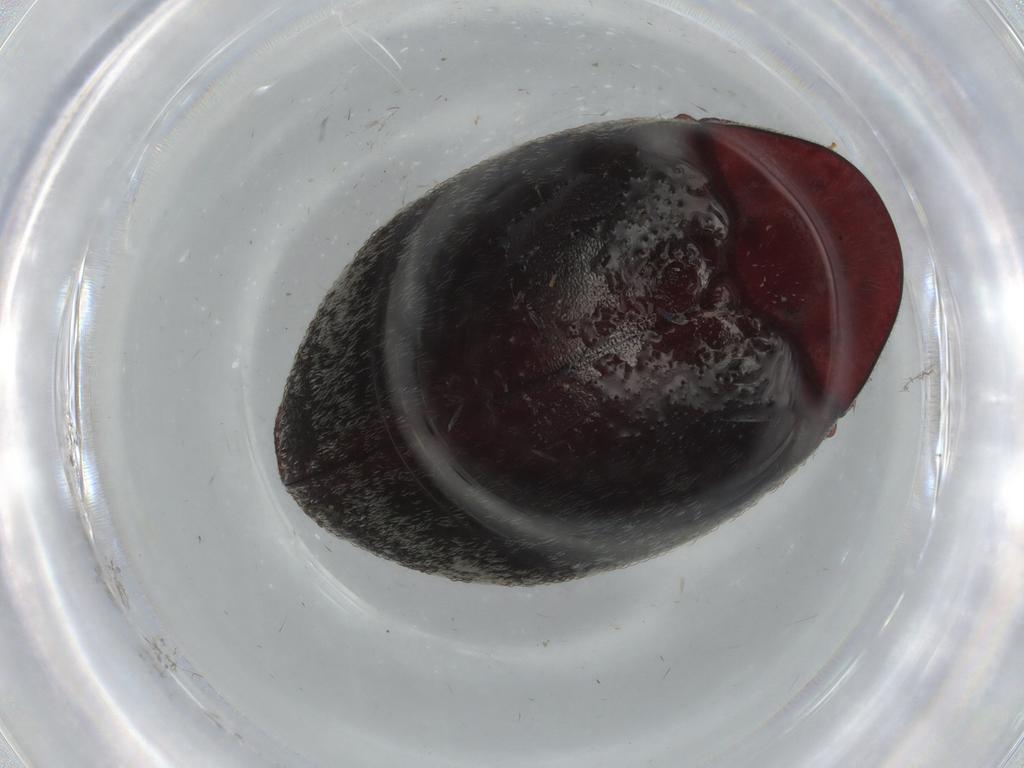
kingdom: Animalia
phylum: Arthropoda
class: Insecta
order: Coleoptera
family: Chelonariidae
